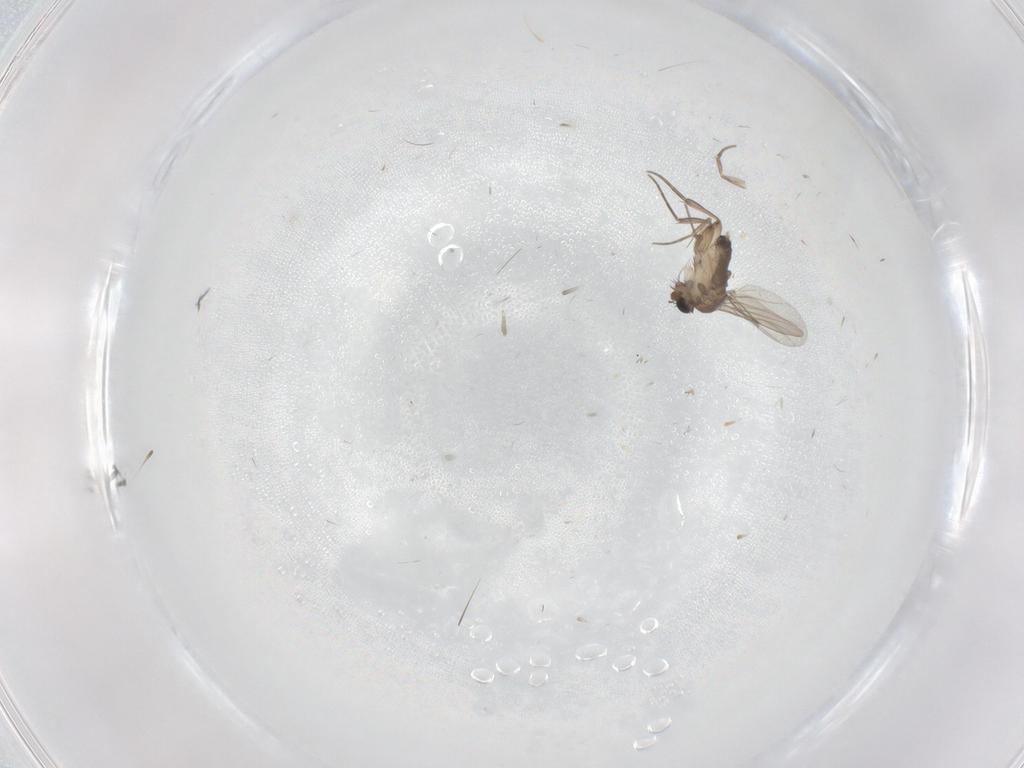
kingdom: Animalia
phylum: Arthropoda
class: Insecta
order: Diptera
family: Phoridae
